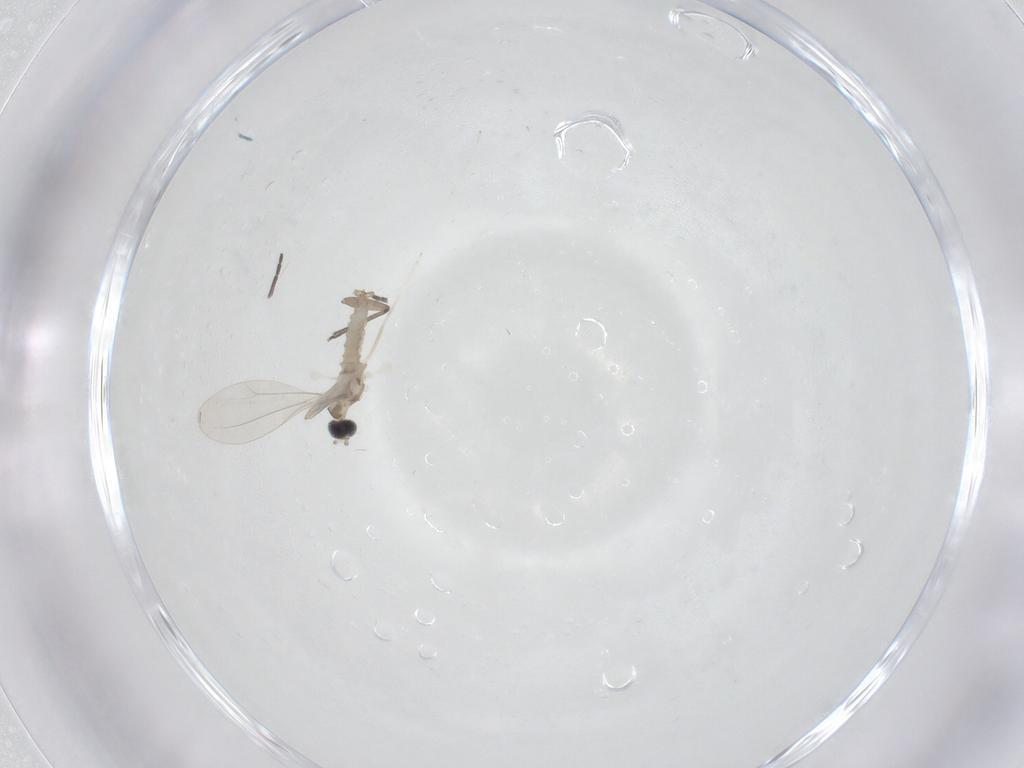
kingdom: Animalia
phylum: Arthropoda
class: Insecta
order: Diptera
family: Cecidomyiidae
